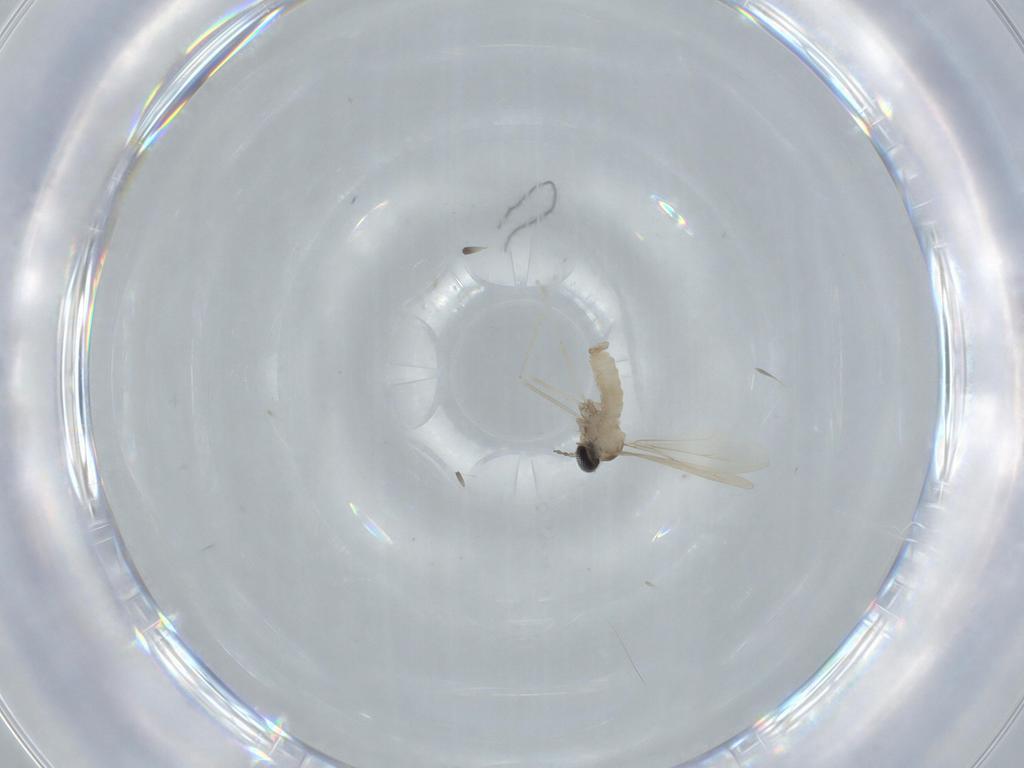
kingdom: Animalia
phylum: Arthropoda
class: Insecta
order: Diptera
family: Cecidomyiidae
